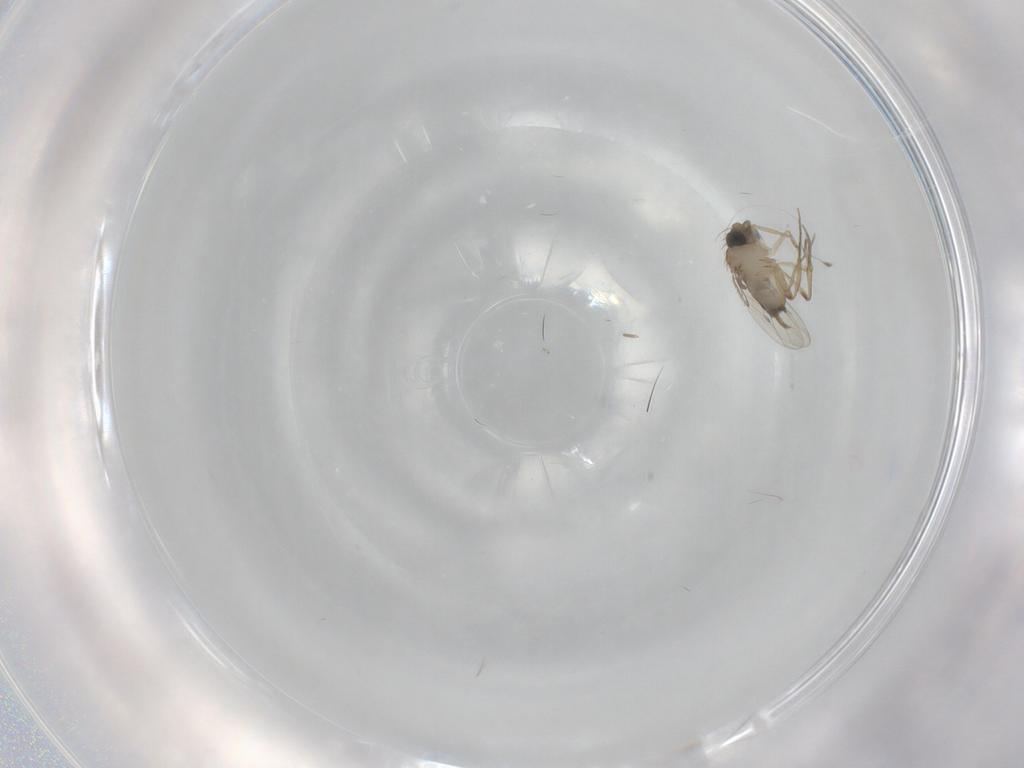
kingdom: Animalia
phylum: Arthropoda
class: Insecta
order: Diptera
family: Phoridae
